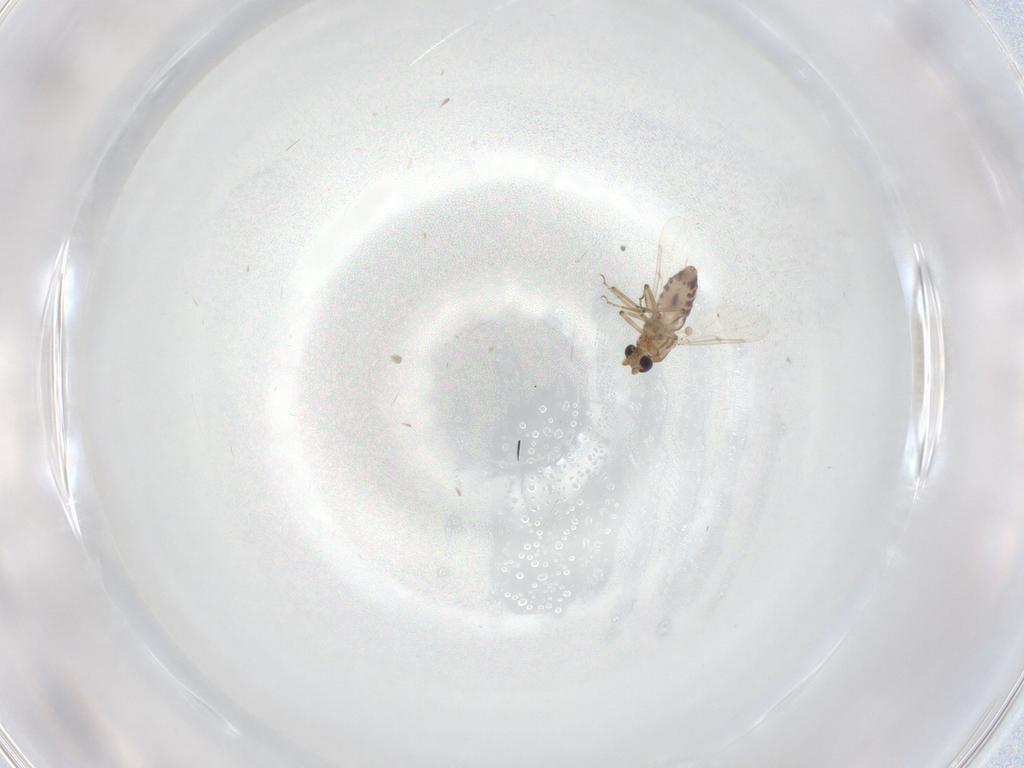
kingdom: Animalia
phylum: Arthropoda
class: Insecta
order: Diptera
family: Ceratopogonidae
